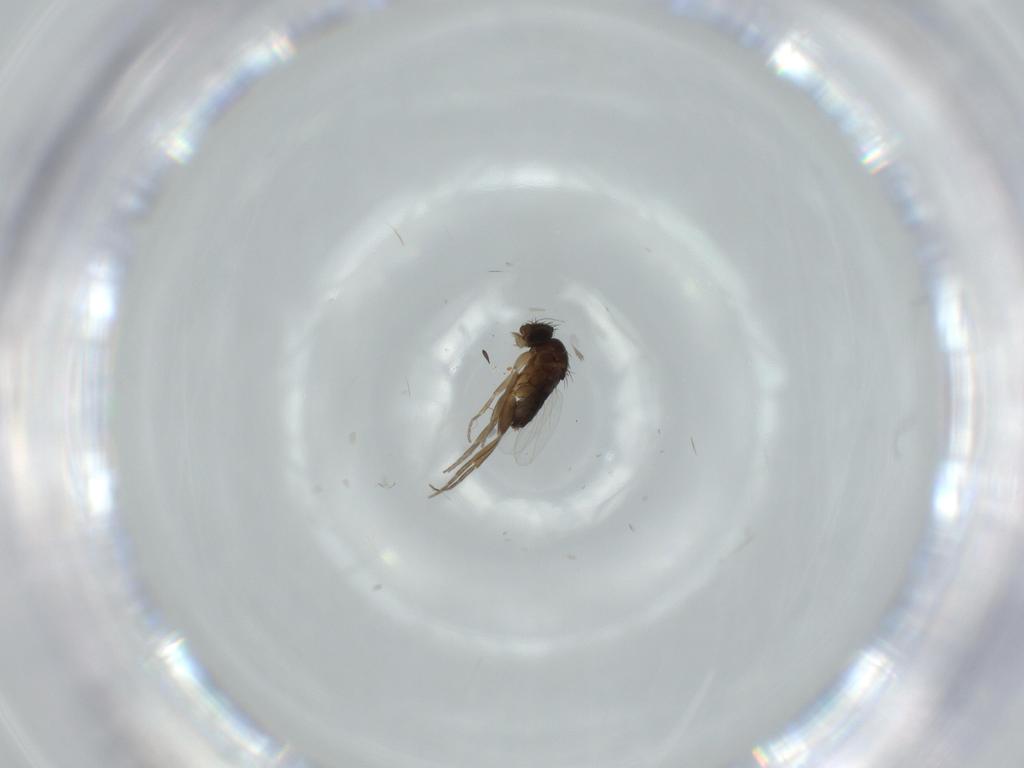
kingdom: Animalia
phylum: Arthropoda
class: Insecta
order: Diptera
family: Phoridae
